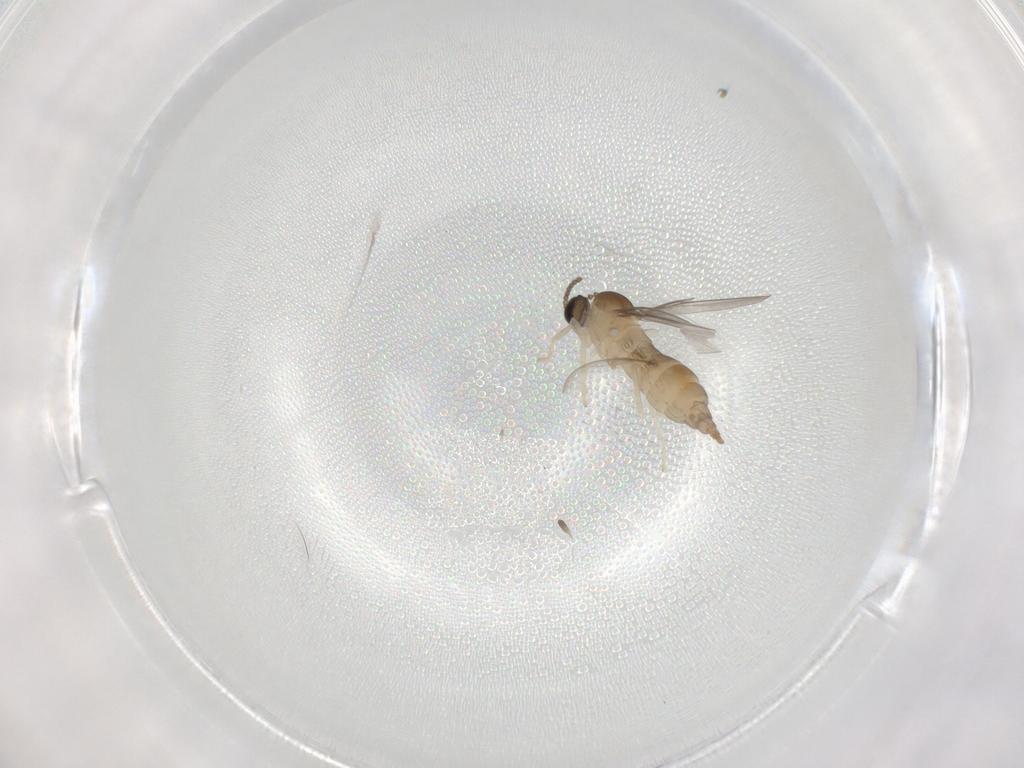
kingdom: Animalia
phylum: Arthropoda
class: Insecta
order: Diptera
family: Cecidomyiidae
